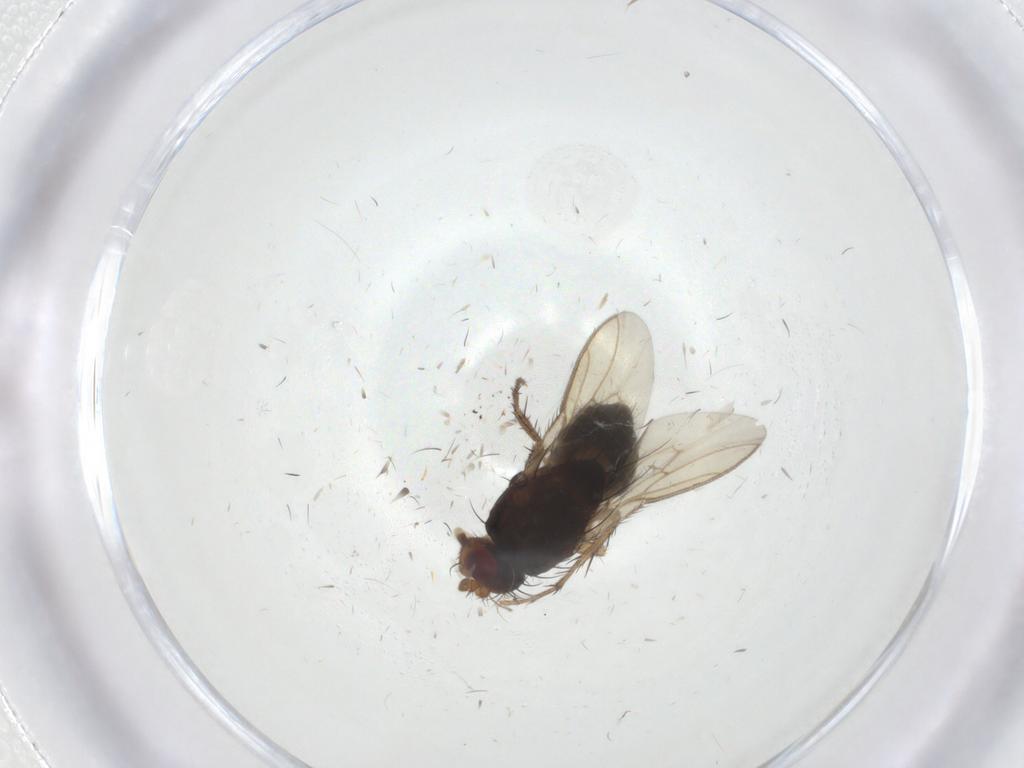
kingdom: Animalia
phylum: Arthropoda
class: Insecta
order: Diptera
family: Sphaeroceridae
